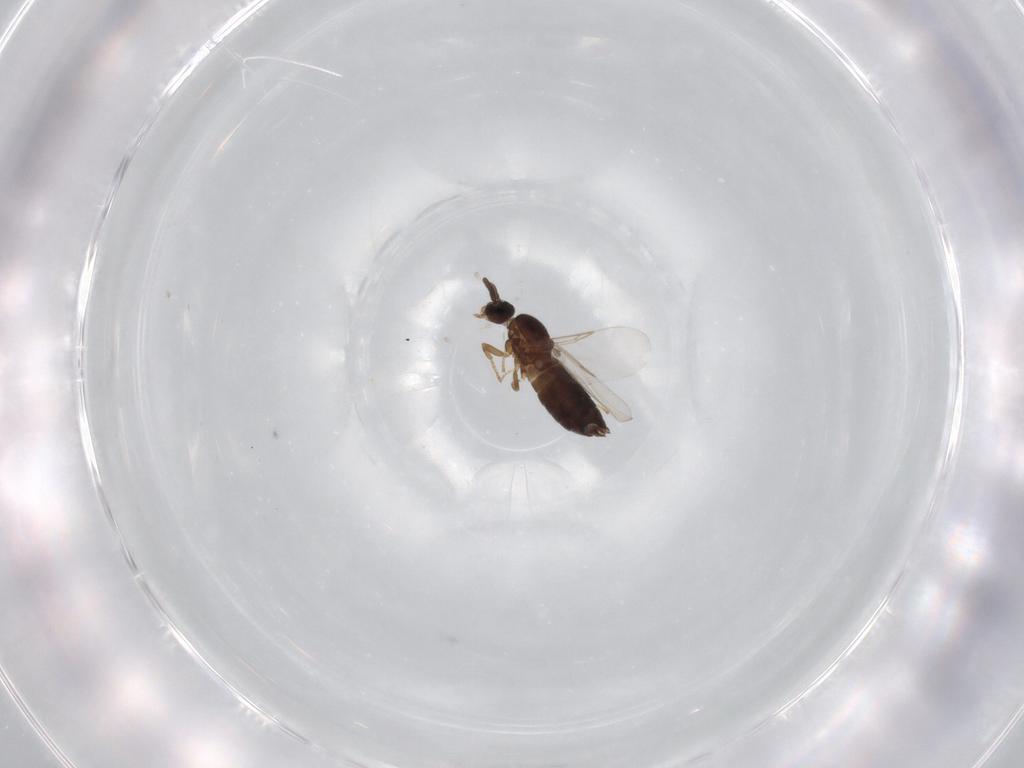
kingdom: Animalia
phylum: Arthropoda
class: Insecta
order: Diptera
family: Scatopsidae
